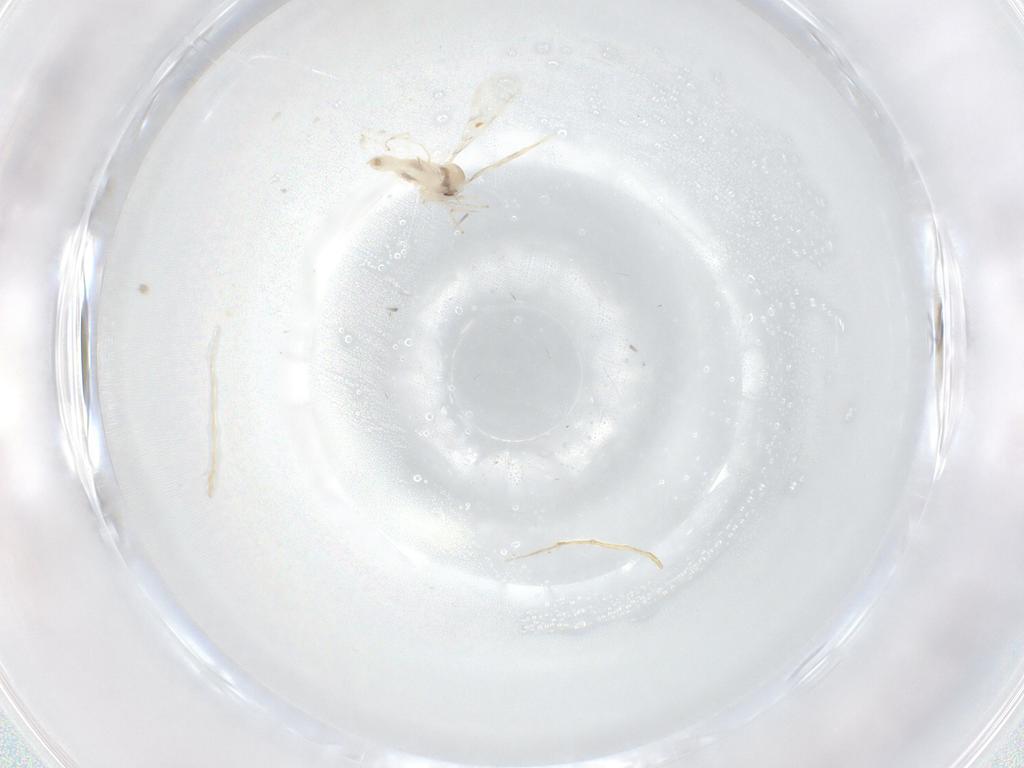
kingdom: Animalia
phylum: Arthropoda
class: Insecta
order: Diptera
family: Cecidomyiidae
